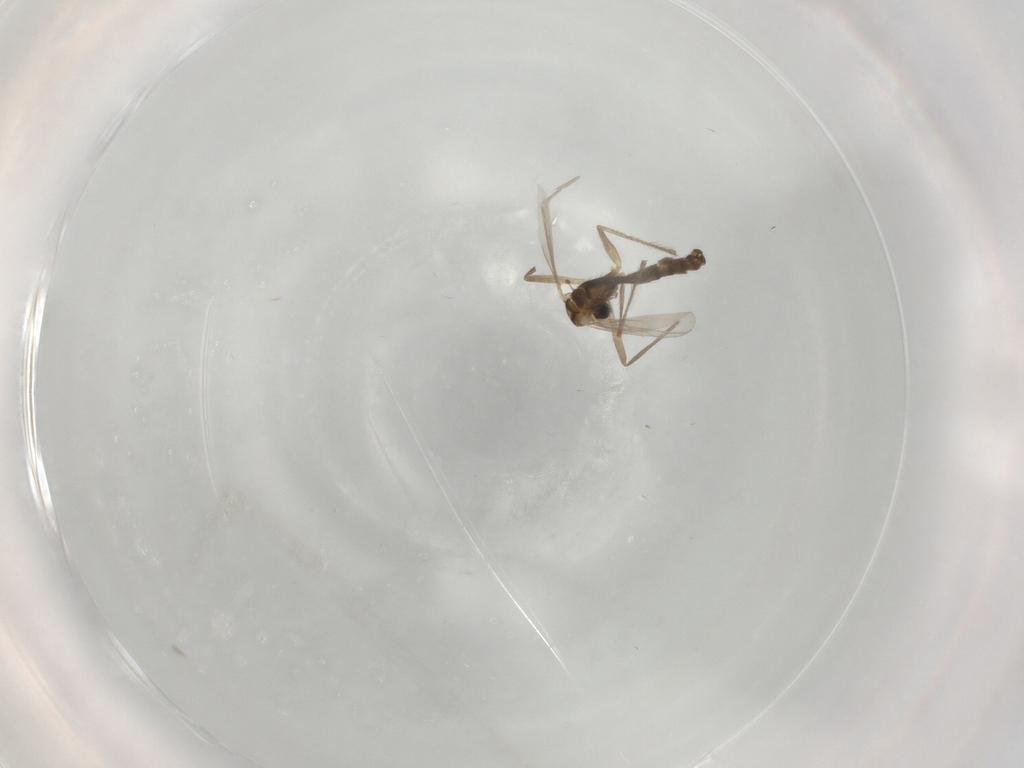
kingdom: Animalia
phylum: Arthropoda
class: Insecta
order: Diptera
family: Chironomidae
